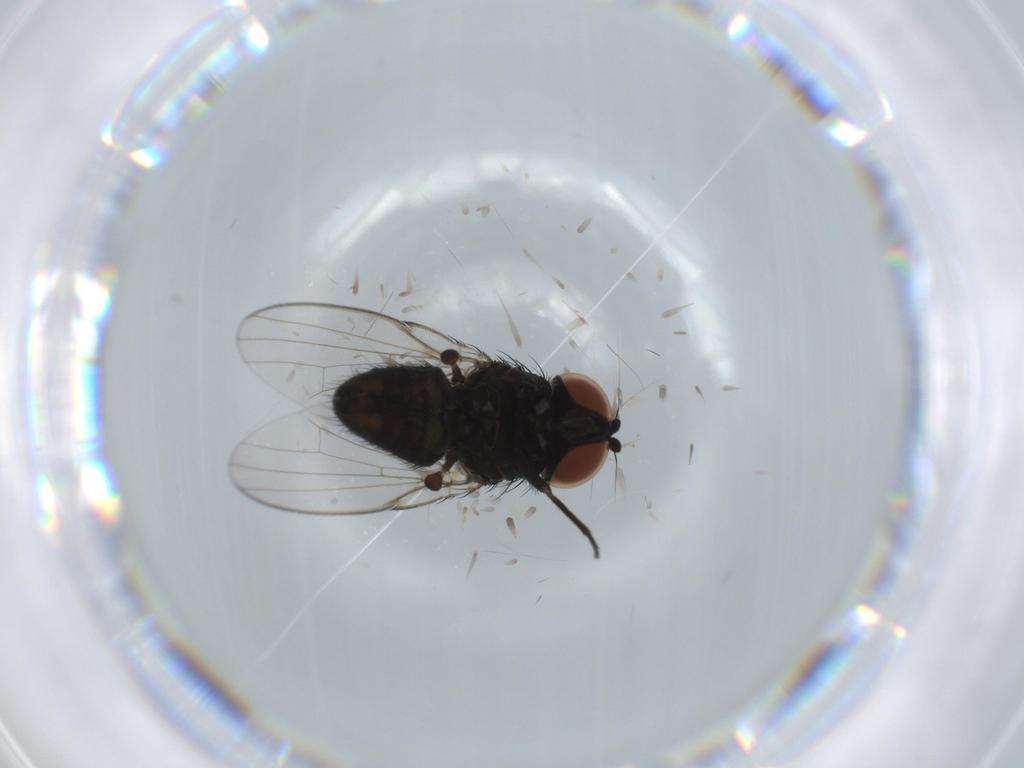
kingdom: Animalia
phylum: Arthropoda
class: Insecta
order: Diptera
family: Milichiidae
